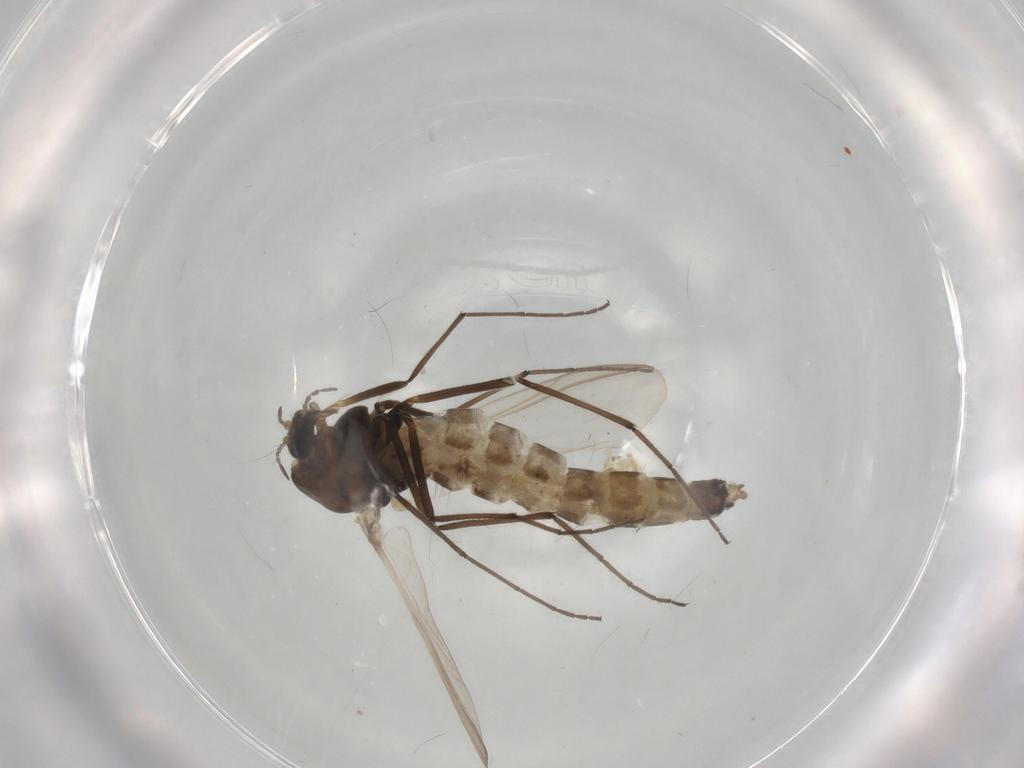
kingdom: Animalia
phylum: Arthropoda
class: Insecta
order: Diptera
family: Chironomidae
